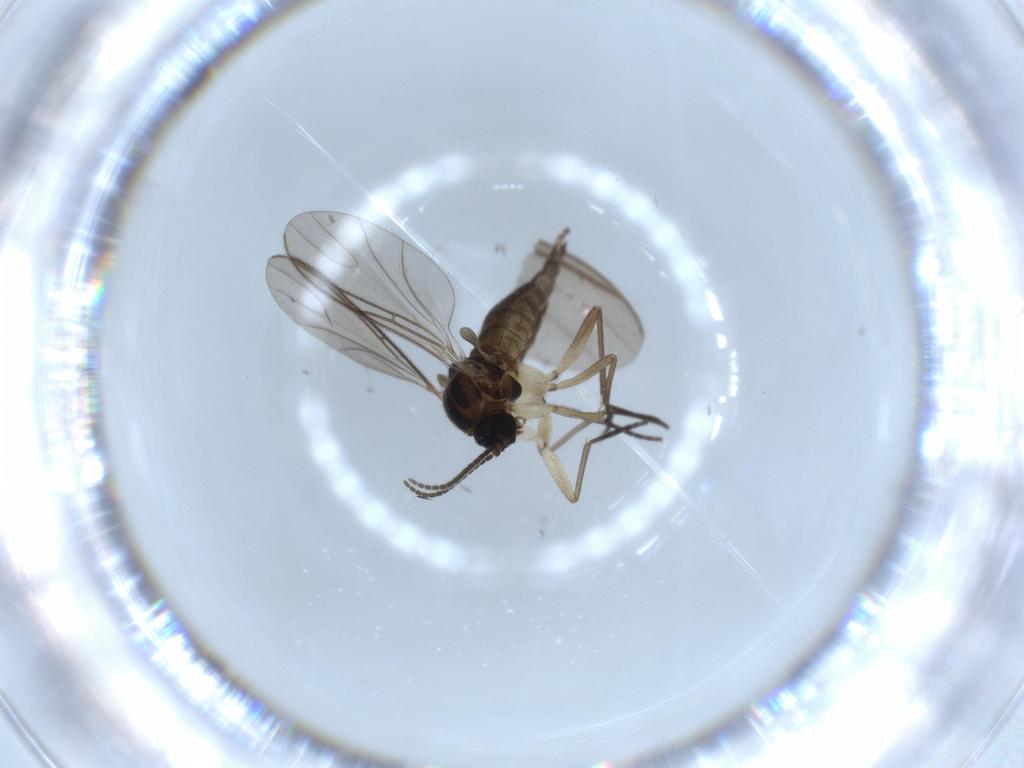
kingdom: Animalia
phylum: Arthropoda
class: Insecta
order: Diptera
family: Sciaridae
